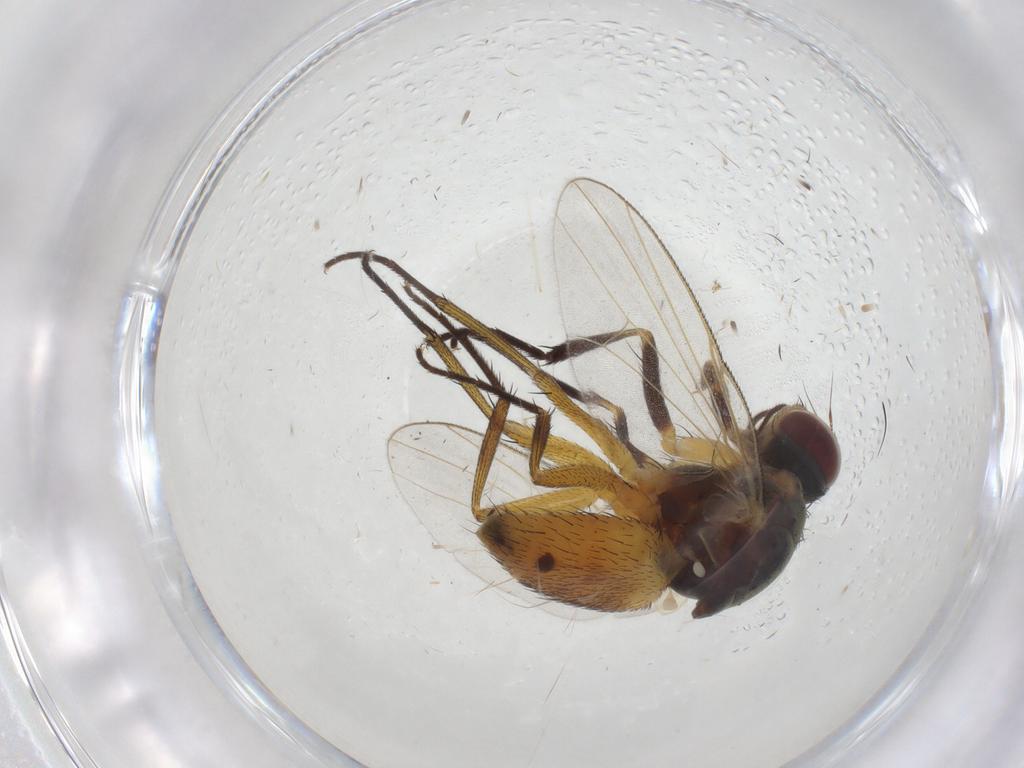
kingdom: Animalia
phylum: Arthropoda
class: Insecta
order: Diptera
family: Muscidae
